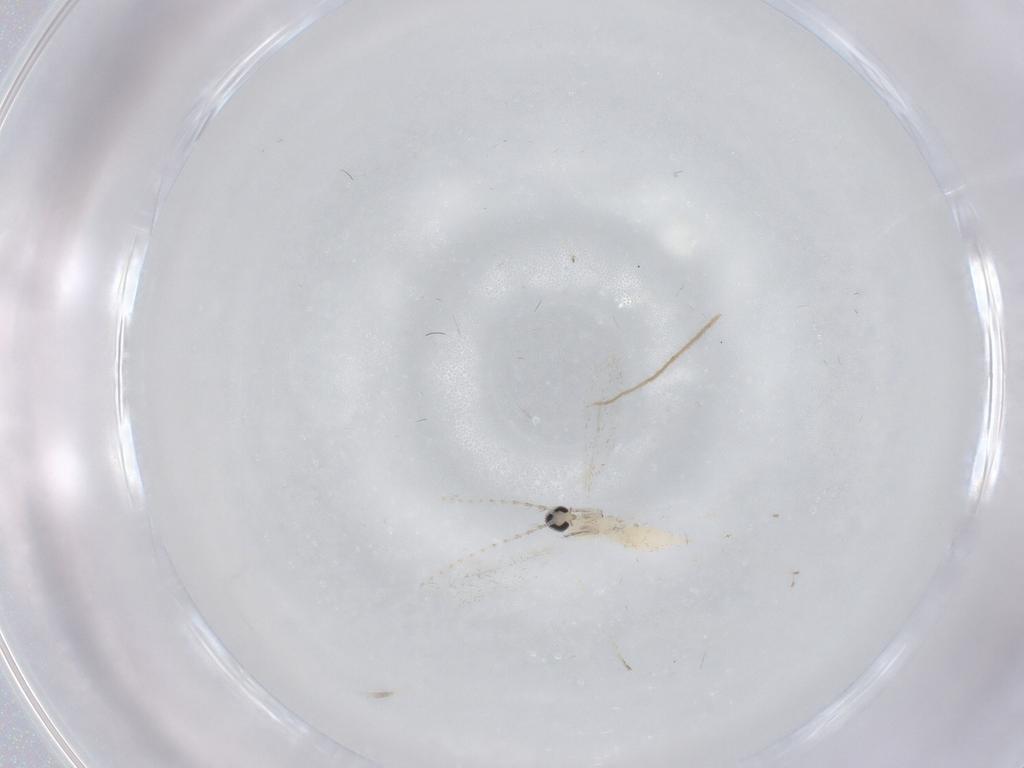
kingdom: Animalia
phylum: Arthropoda
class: Insecta
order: Diptera
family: Cecidomyiidae
